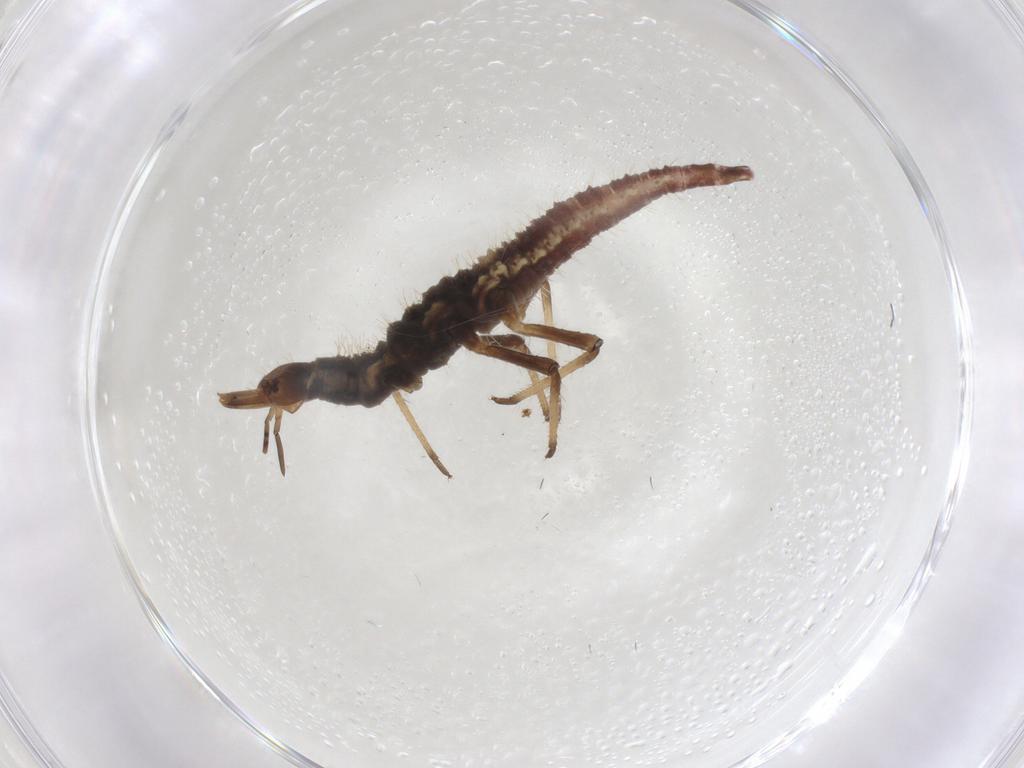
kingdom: Animalia
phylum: Arthropoda
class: Insecta
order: Neuroptera
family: Hemerobiidae
